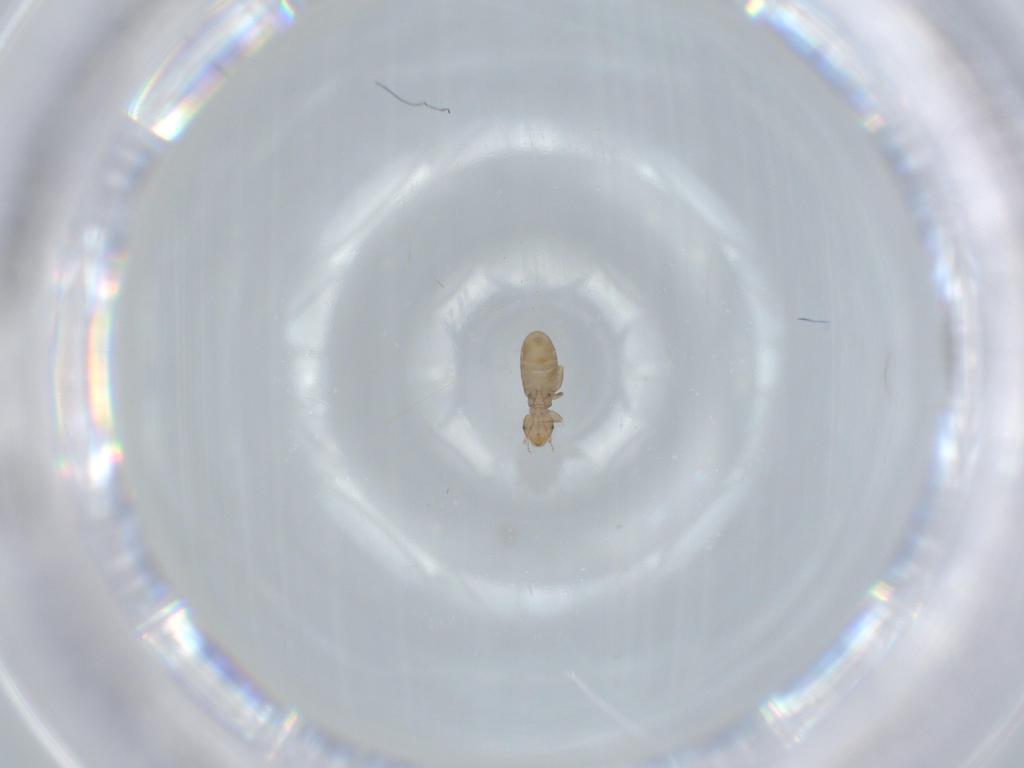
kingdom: Animalia
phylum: Arthropoda
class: Insecta
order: Psocodea
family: Liposcelididae
